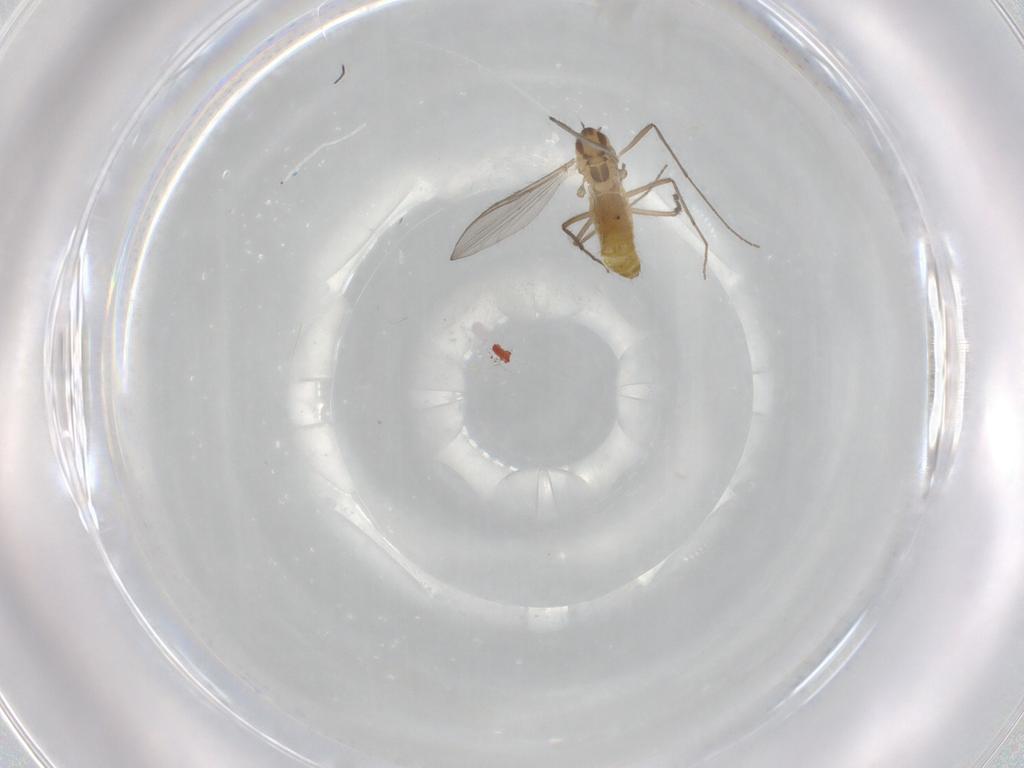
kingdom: Animalia
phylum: Arthropoda
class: Insecta
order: Diptera
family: Chironomidae
